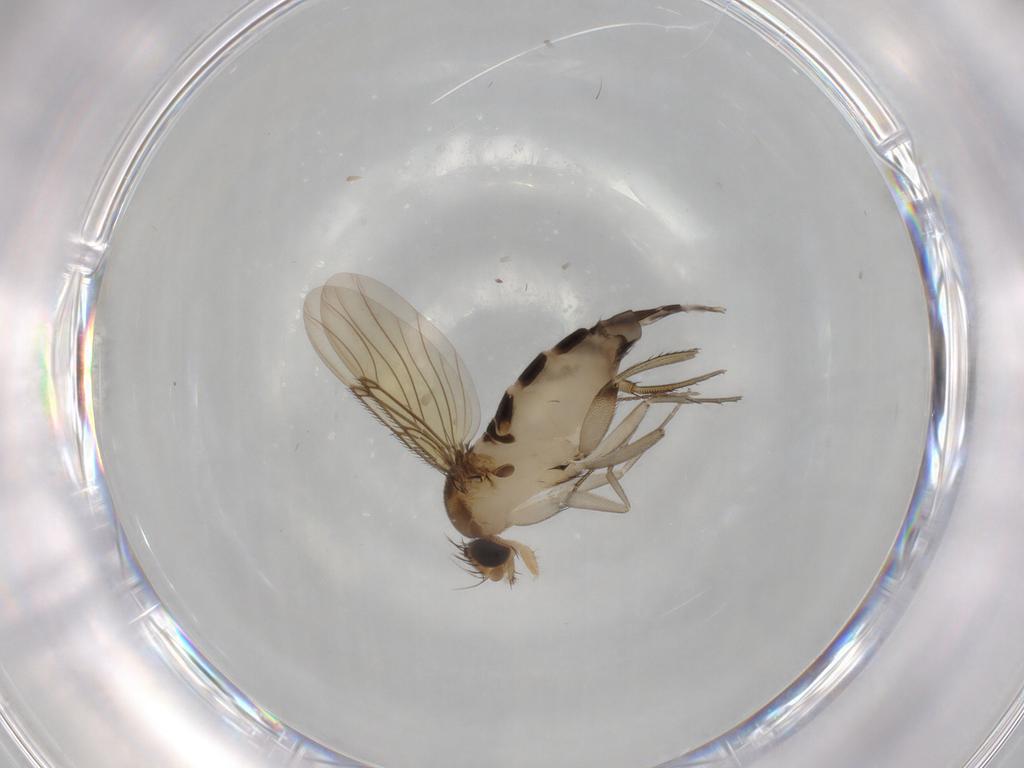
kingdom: Animalia
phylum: Arthropoda
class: Insecta
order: Diptera
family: Phoridae
